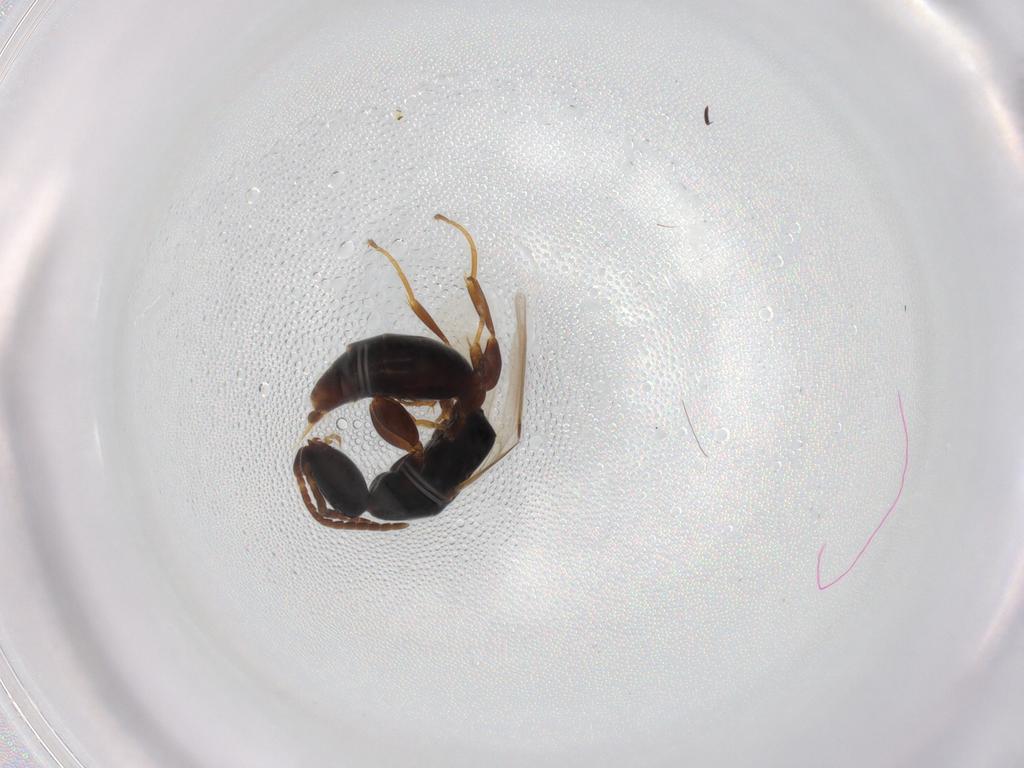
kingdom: Animalia
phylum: Arthropoda
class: Insecta
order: Hymenoptera
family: Bethylidae
